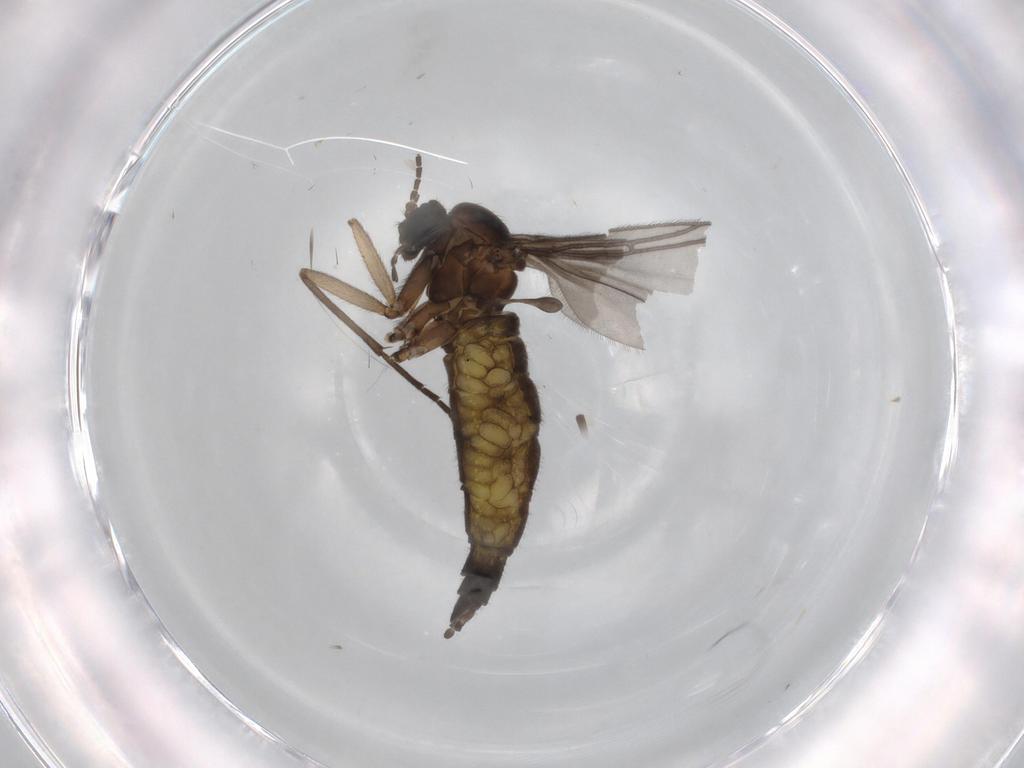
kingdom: Animalia
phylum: Arthropoda
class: Insecta
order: Diptera
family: Sciaridae
